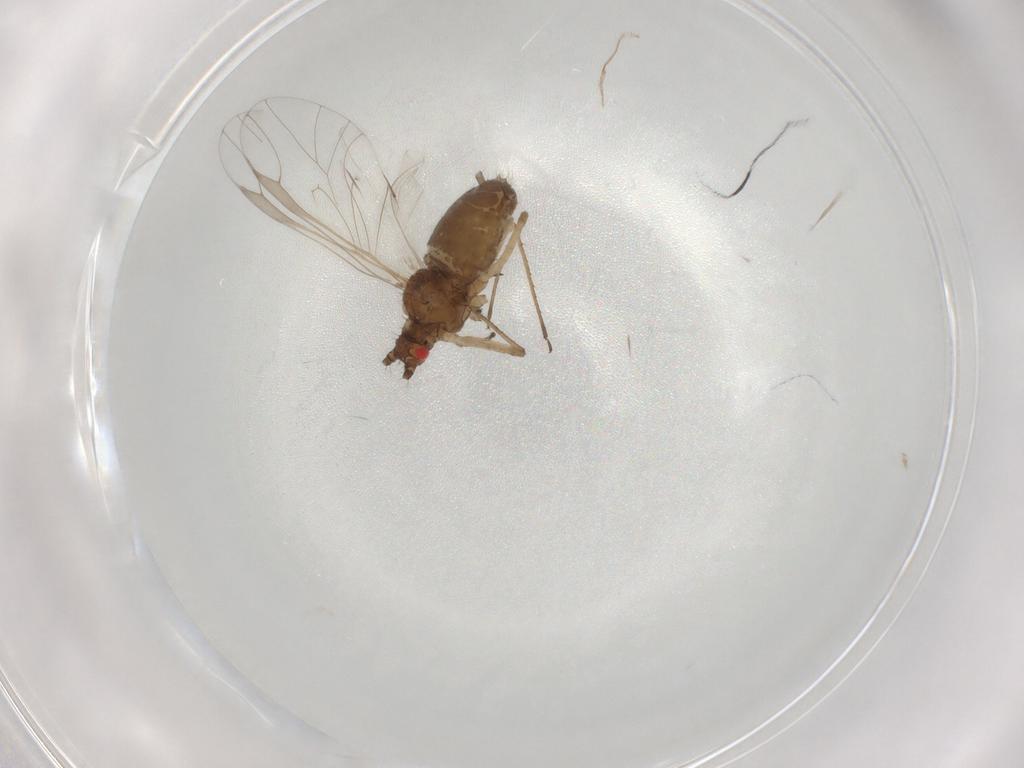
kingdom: Animalia
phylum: Arthropoda
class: Insecta
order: Hemiptera
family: Aphididae
